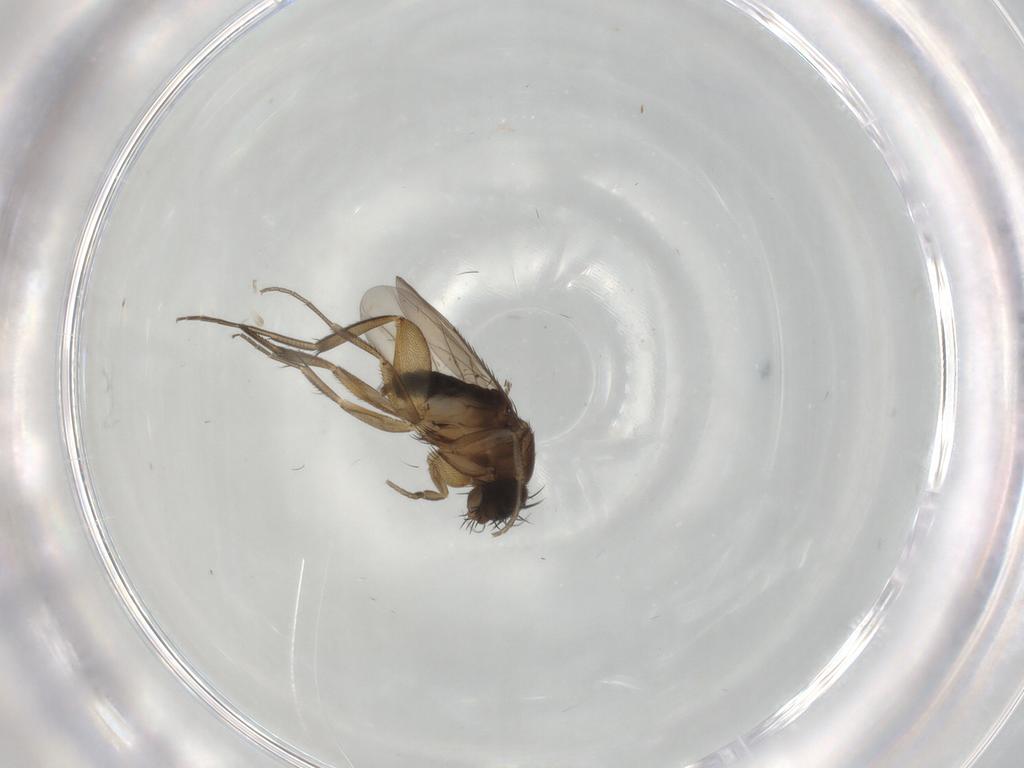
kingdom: Animalia
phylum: Arthropoda
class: Insecta
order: Diptera
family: Phoridae
